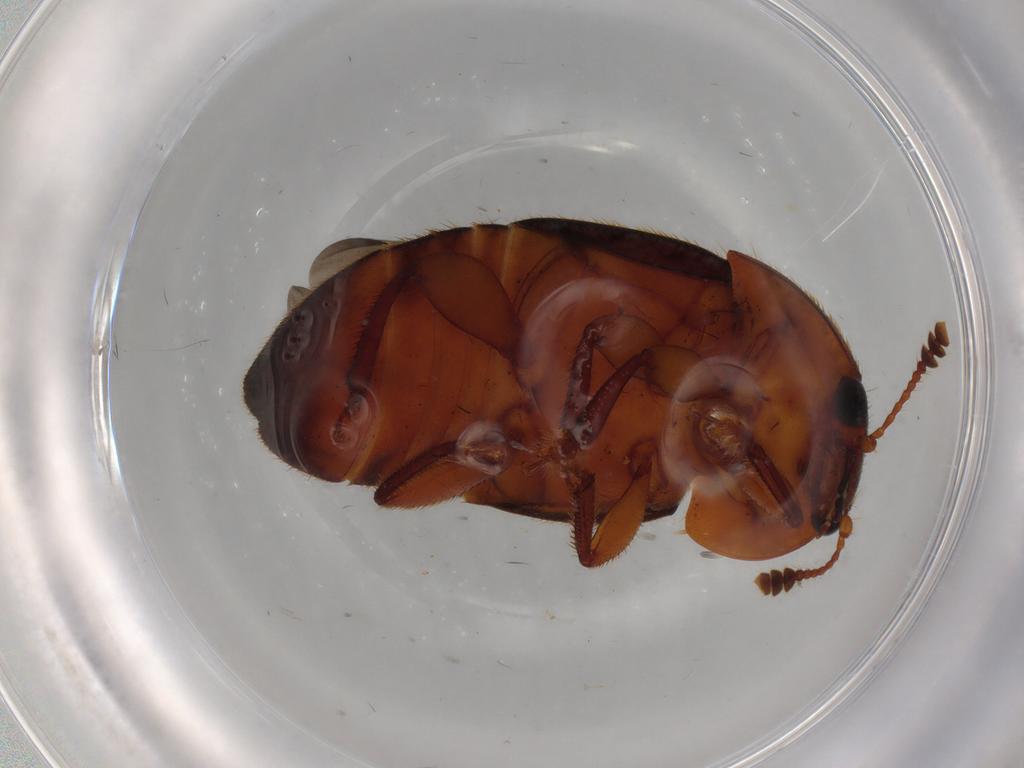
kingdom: Animalia
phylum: Arthropoda
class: Insecta
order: Coleoptera
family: Nitidulidae
